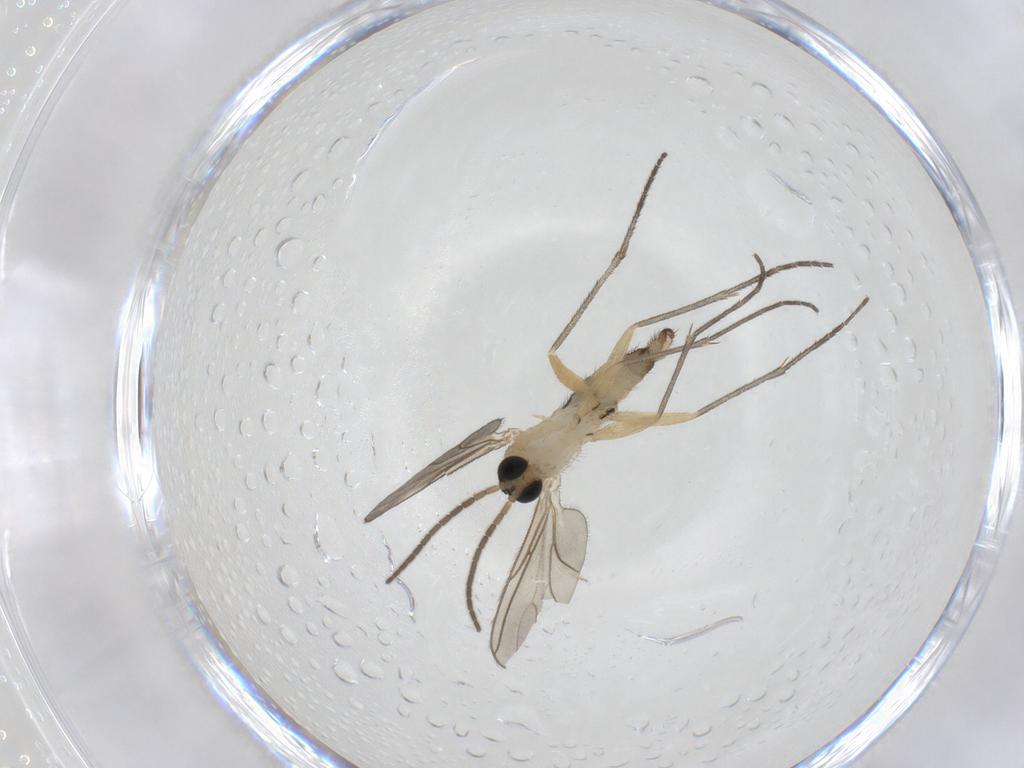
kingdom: Animalia
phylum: Arthropoda
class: Insecta
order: Diptera
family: Sciaridae
